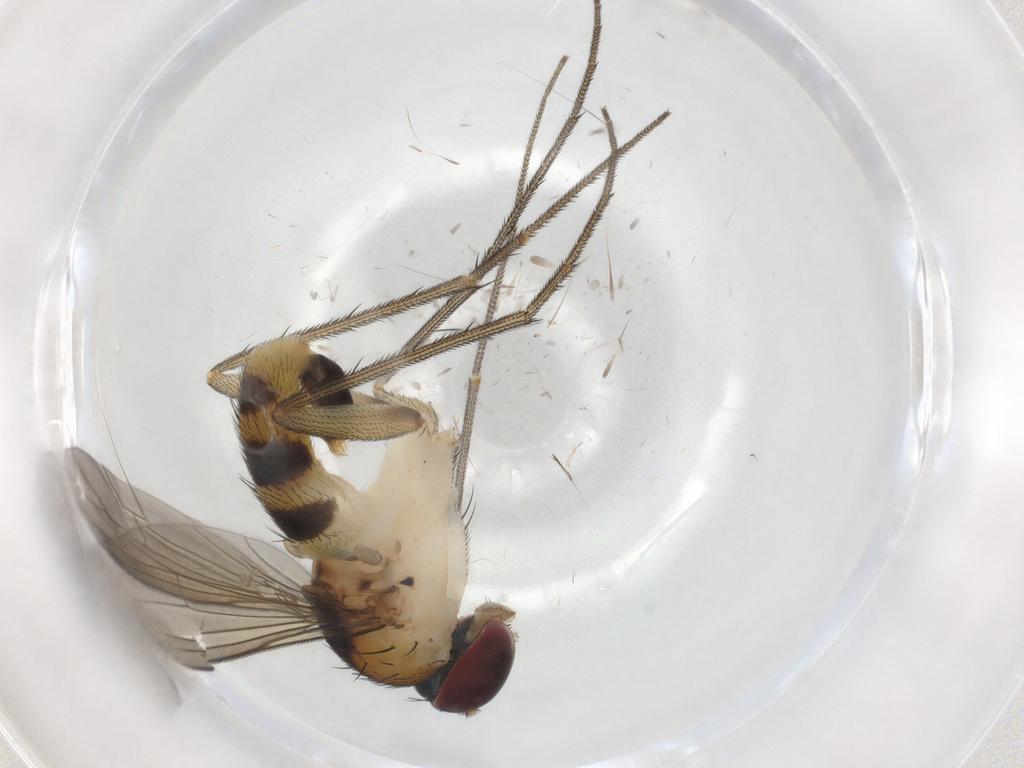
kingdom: Animalia
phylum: Arthropoda
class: Insecta
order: Diptera
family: Dolichopodidae
